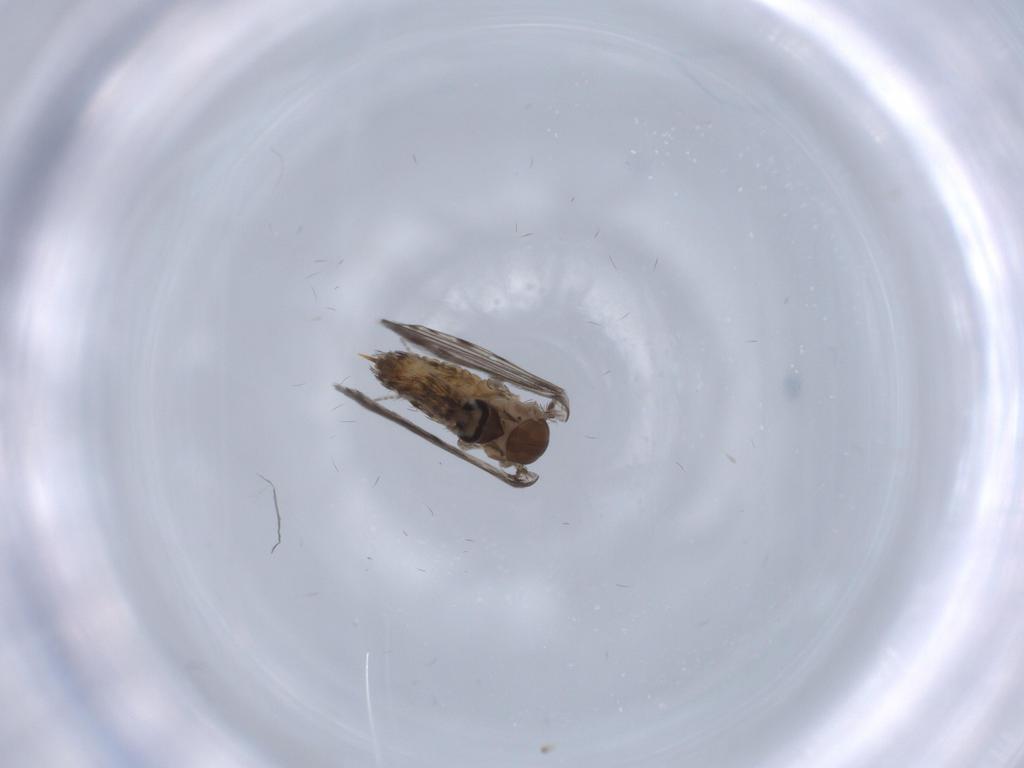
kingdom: Animalia
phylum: Arthropoda
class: Insecta
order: Diptera
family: Psychodidae
